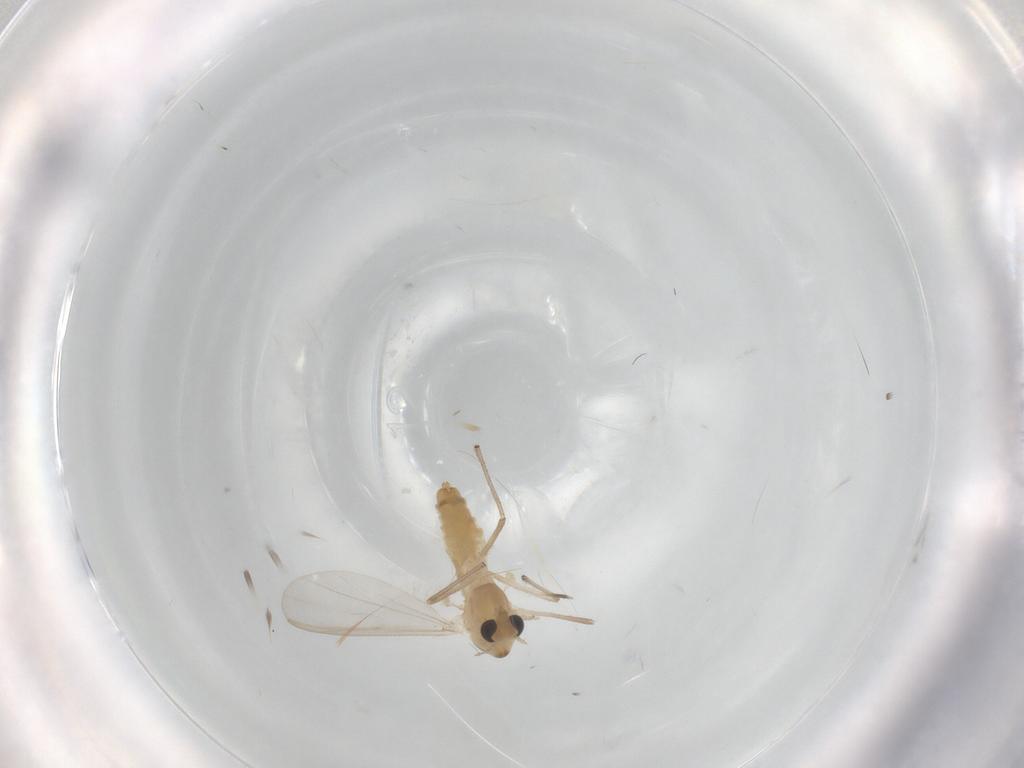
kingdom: Animalia
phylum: Arthropoda
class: Insecta
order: Diptera
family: Chironomidae
